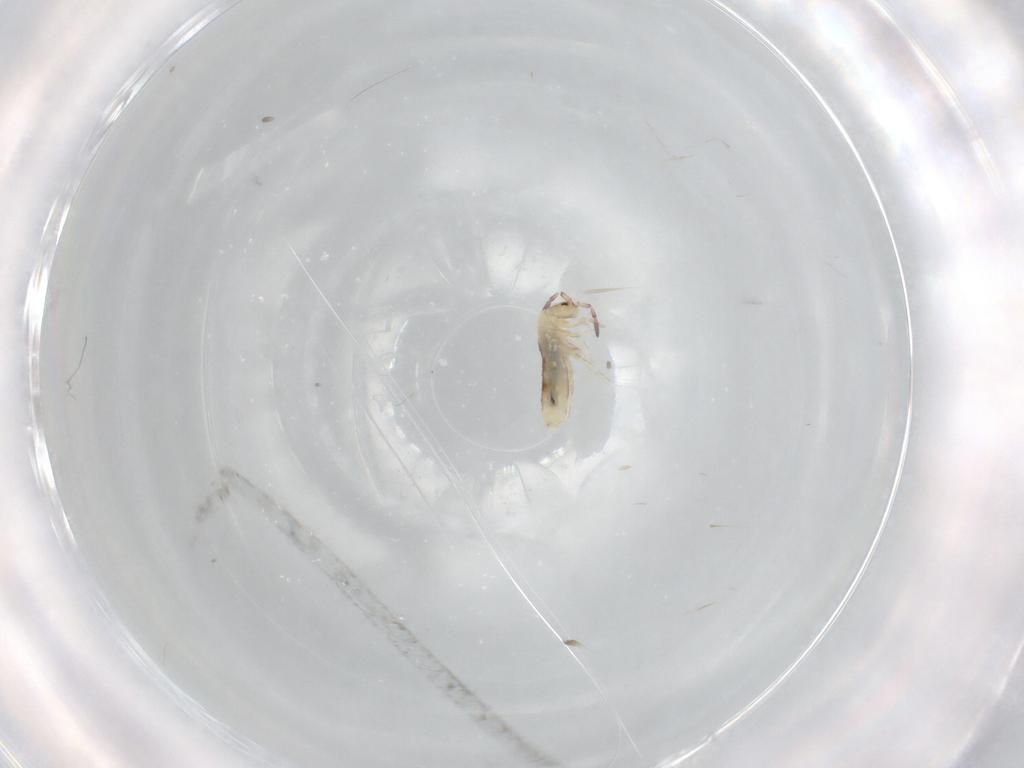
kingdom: Animalia
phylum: Arthropoda
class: Collembola
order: Entomobryomorpha
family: Entomobryidae
